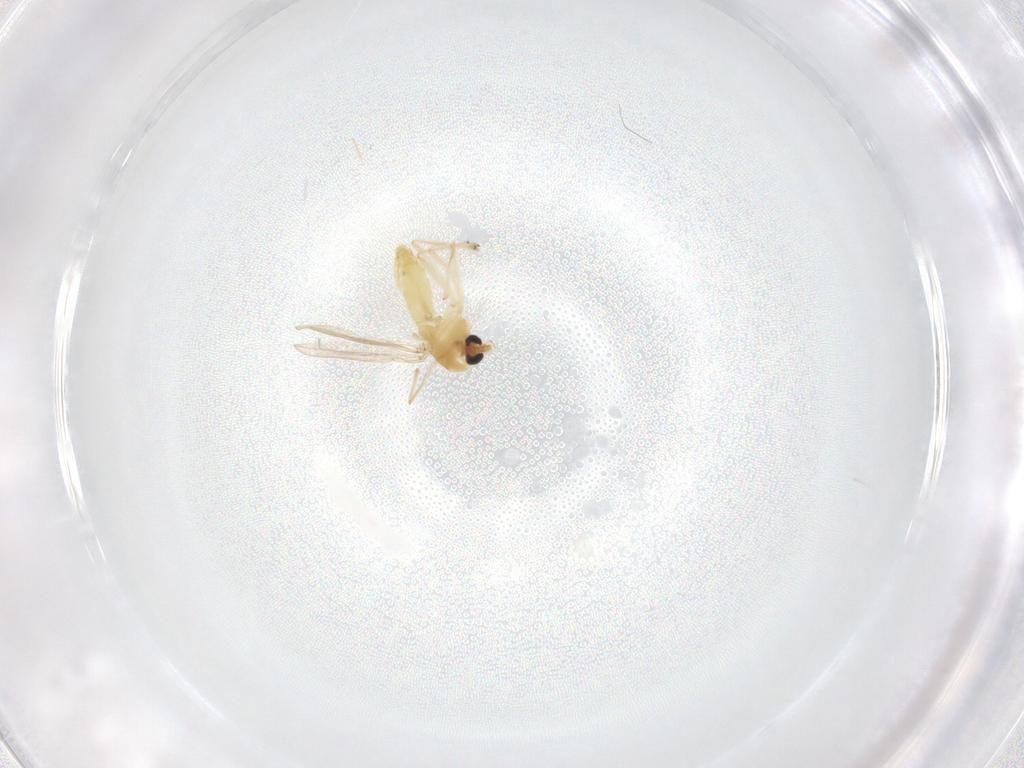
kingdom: Animalia
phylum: Arthropoda
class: Insecta
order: Diptera
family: Chironomidae
